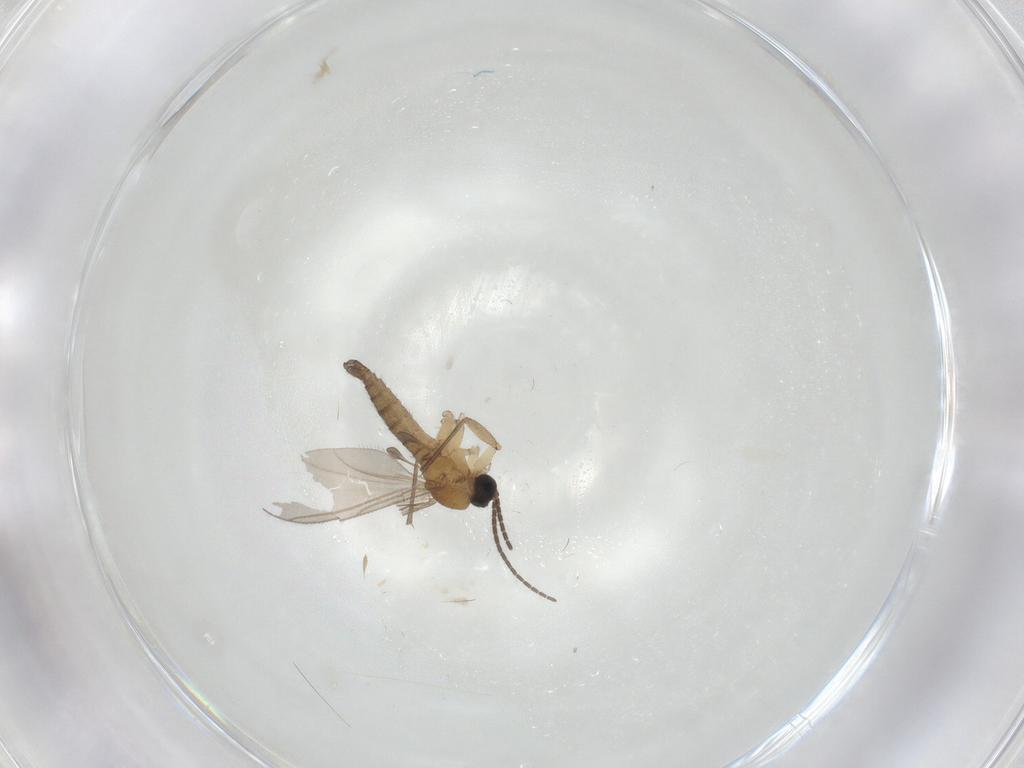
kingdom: Animalia
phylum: Arthropoda
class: Insecta
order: Diptera
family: Sciaridae
